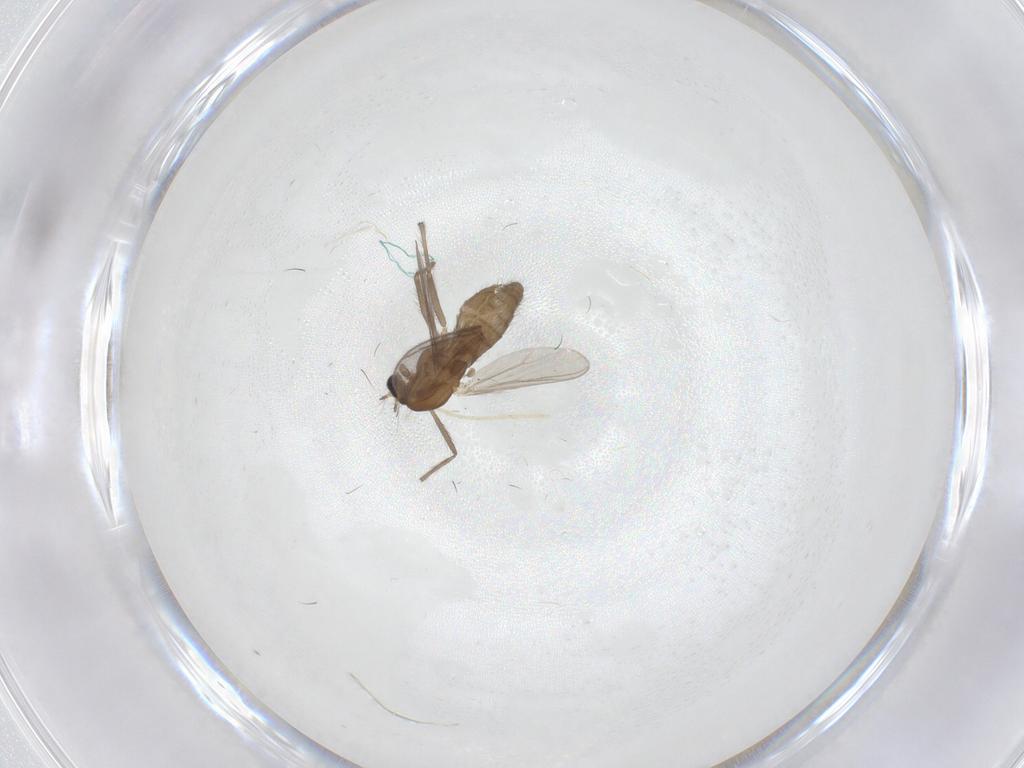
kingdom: Animalia
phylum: Arthropoda
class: Insecta
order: Diptera
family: Chironomidae
